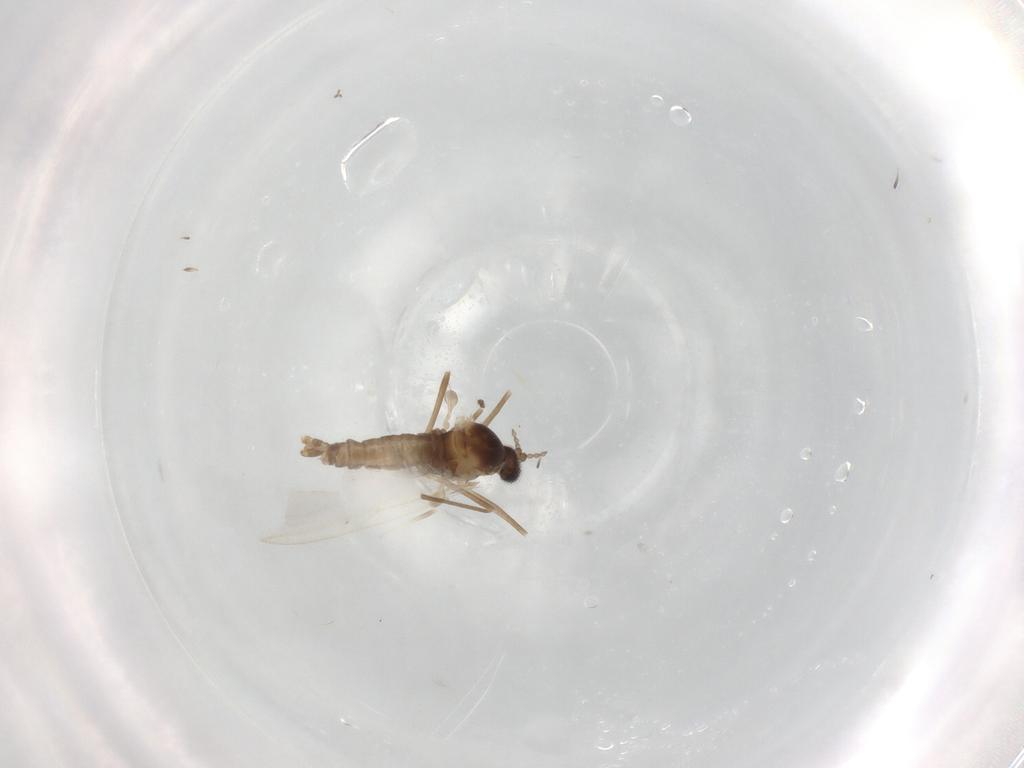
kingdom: Animalia
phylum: Arthropoda
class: Insecta
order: Diptera
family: Cecidomyiidae
